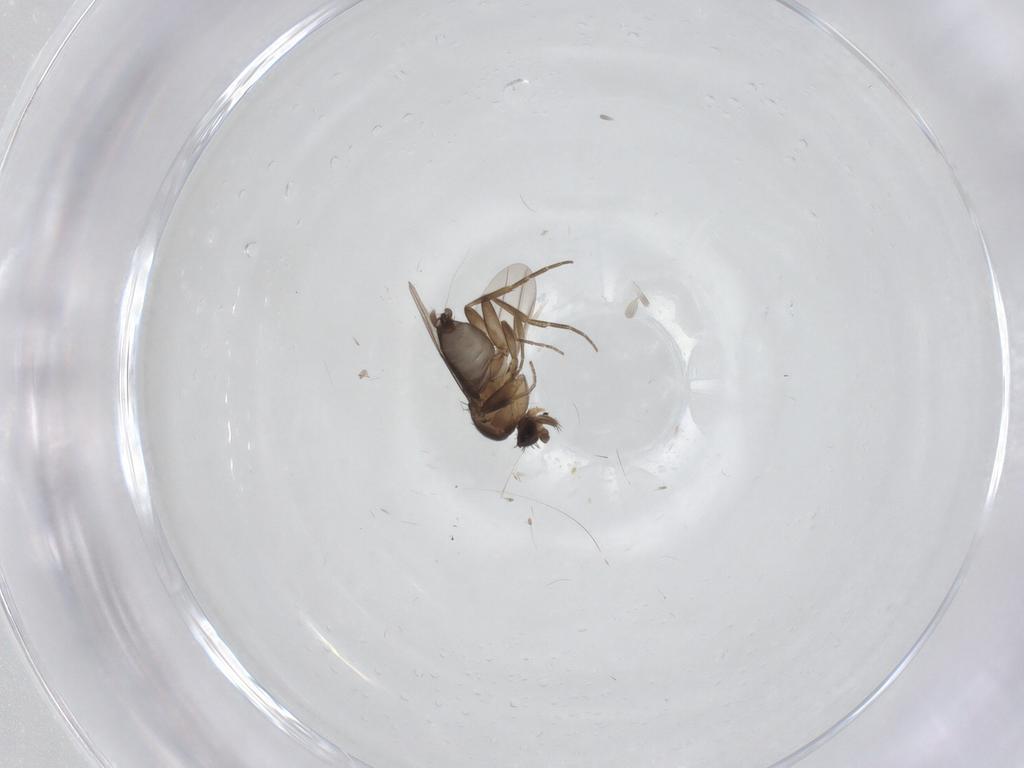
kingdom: Animalia
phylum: Arthropoda
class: Insecta
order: Diptera
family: Cecidomyiidae
